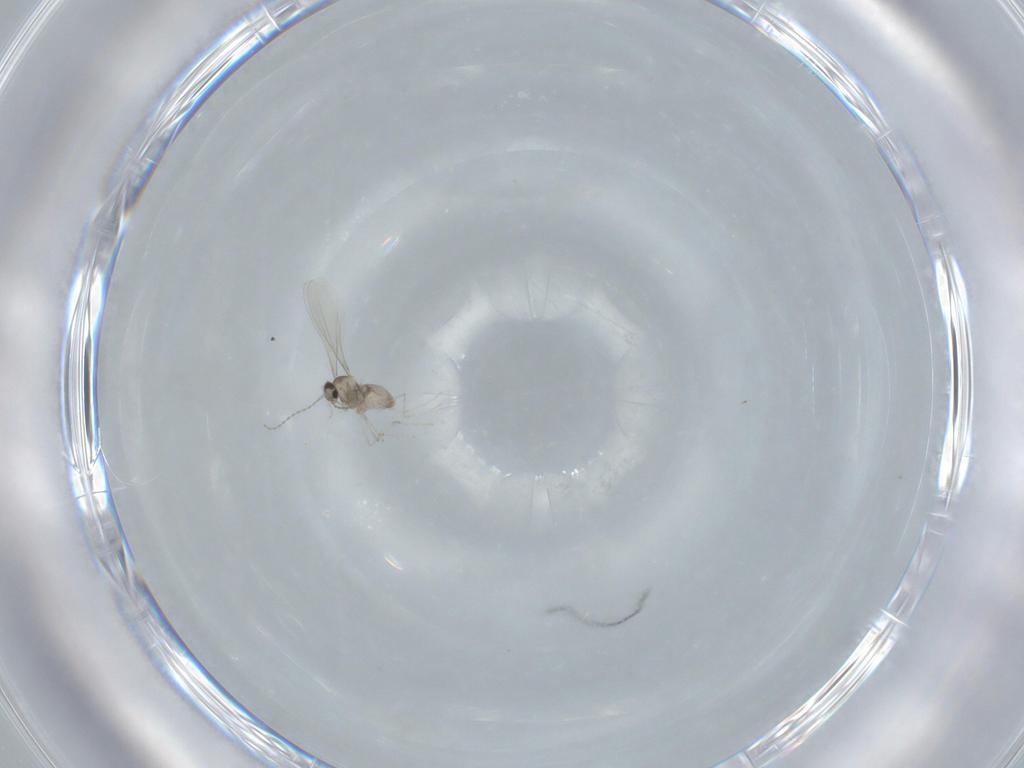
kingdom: Animalia
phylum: Arthropoda
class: Insecta
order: Diptera
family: Cecidomyiidae
